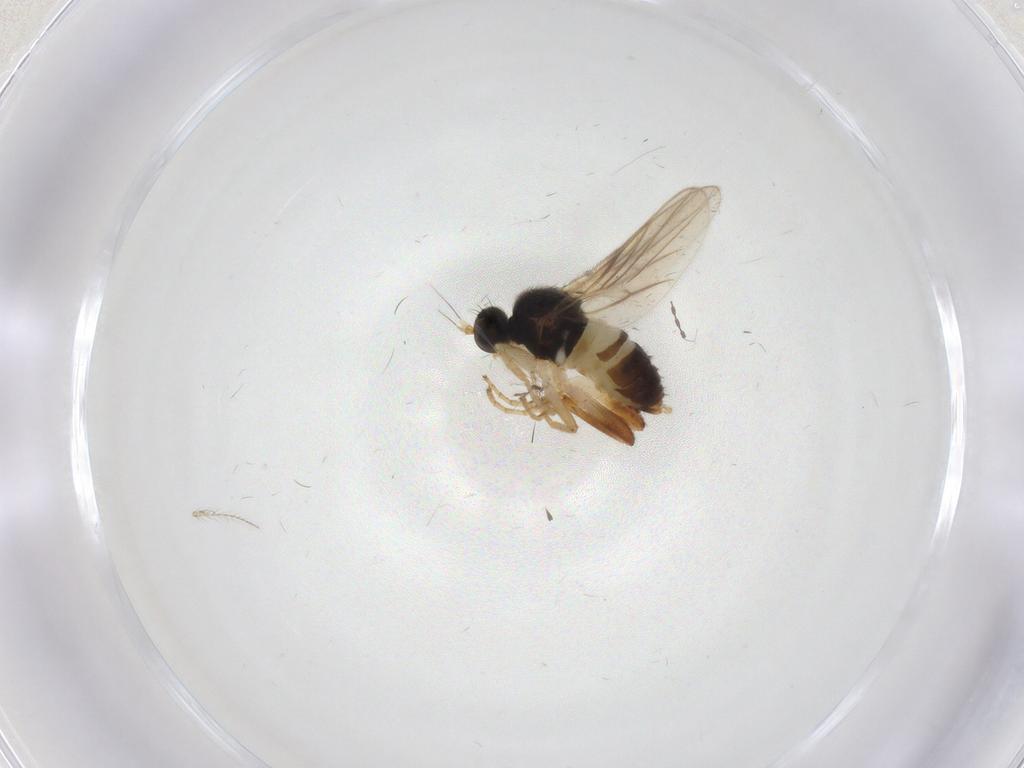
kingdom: Animalia
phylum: Arthropoda
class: Insecta
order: Diptera
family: Hybotidae
